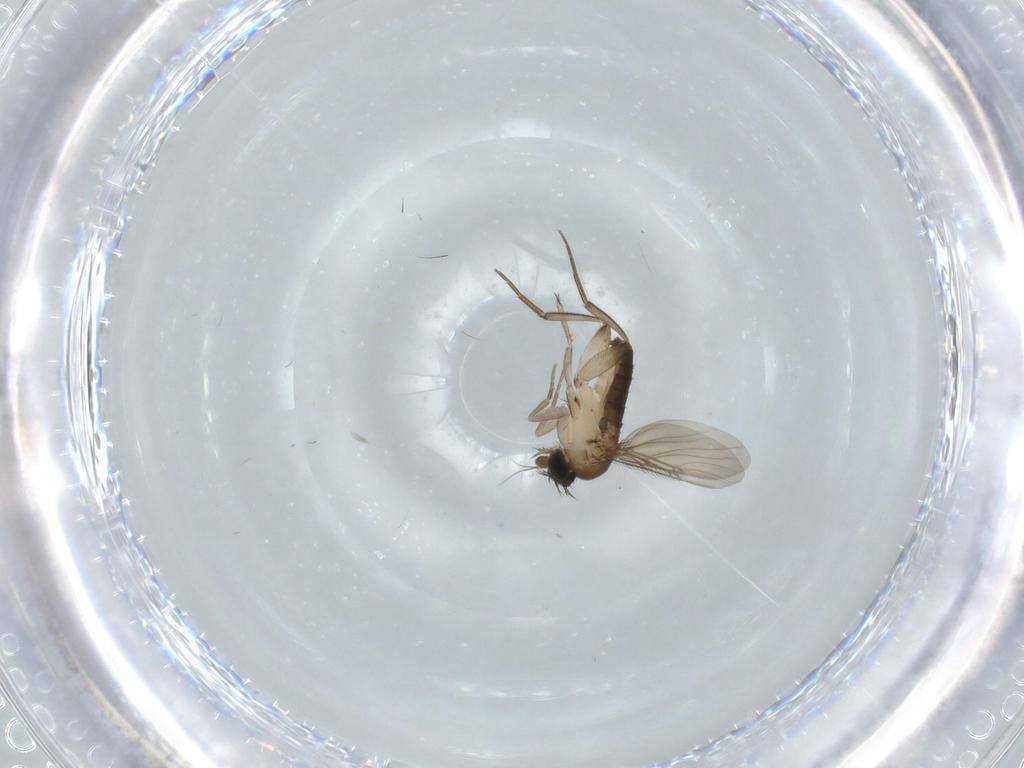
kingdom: Animalia
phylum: Arthropoda
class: Insecta
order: Diptera
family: Phoridae
